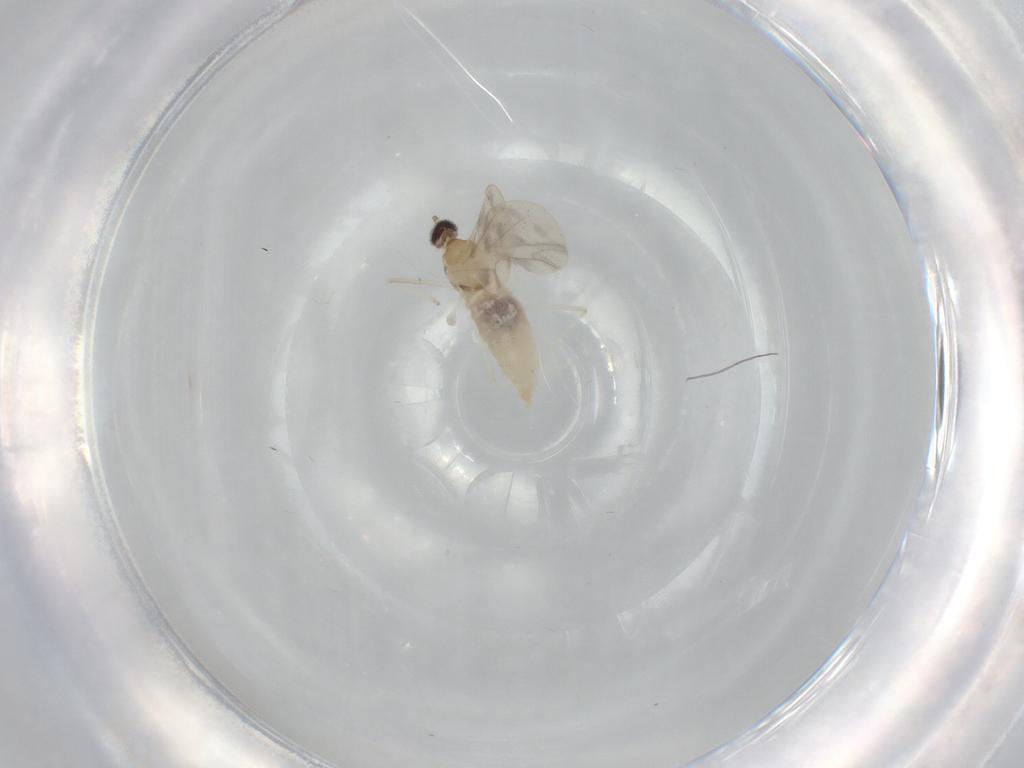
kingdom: Animalia
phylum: Arthropoda
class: Insecta
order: Diptera
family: Cecidomyiidae
